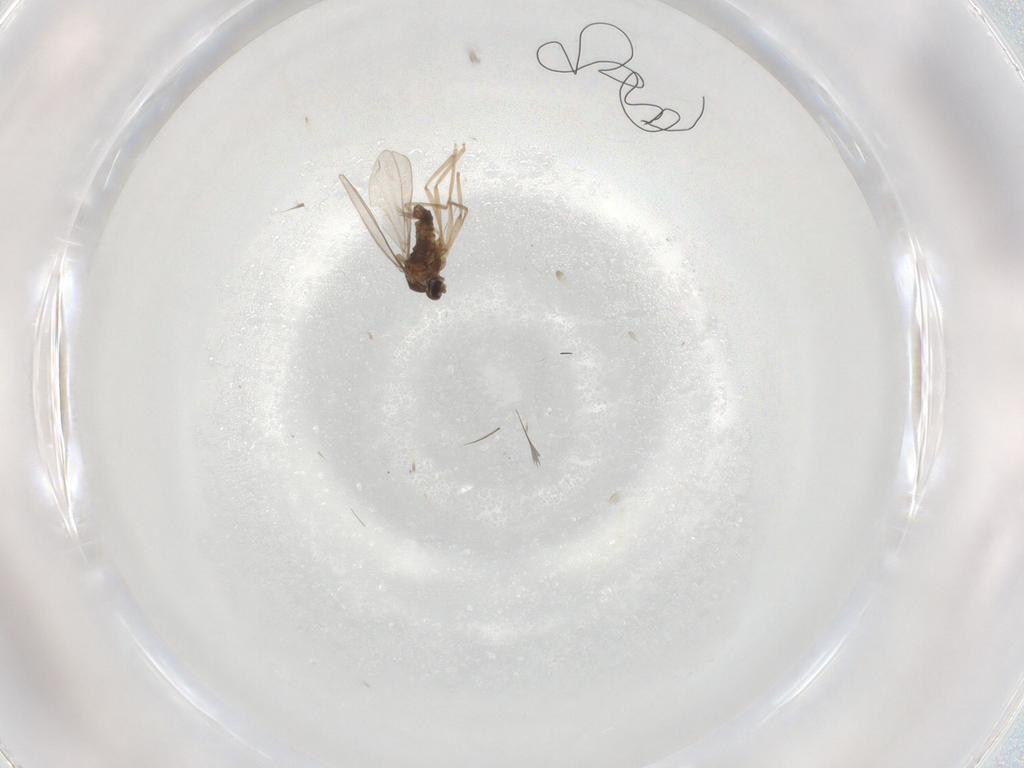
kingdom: Animalia
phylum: Arthropoda
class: Insecta
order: Diptera
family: Cecidomyiidae
